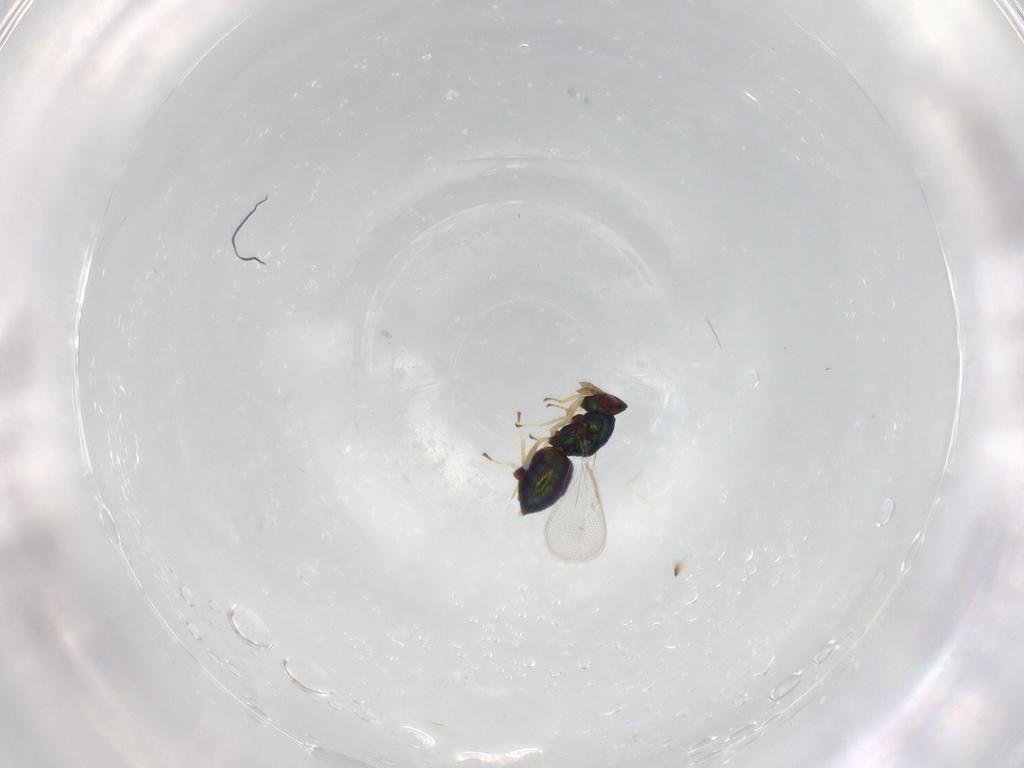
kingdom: Animalia
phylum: Arthropoda
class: Insecta
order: Hymenoptera
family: Eulophidae
